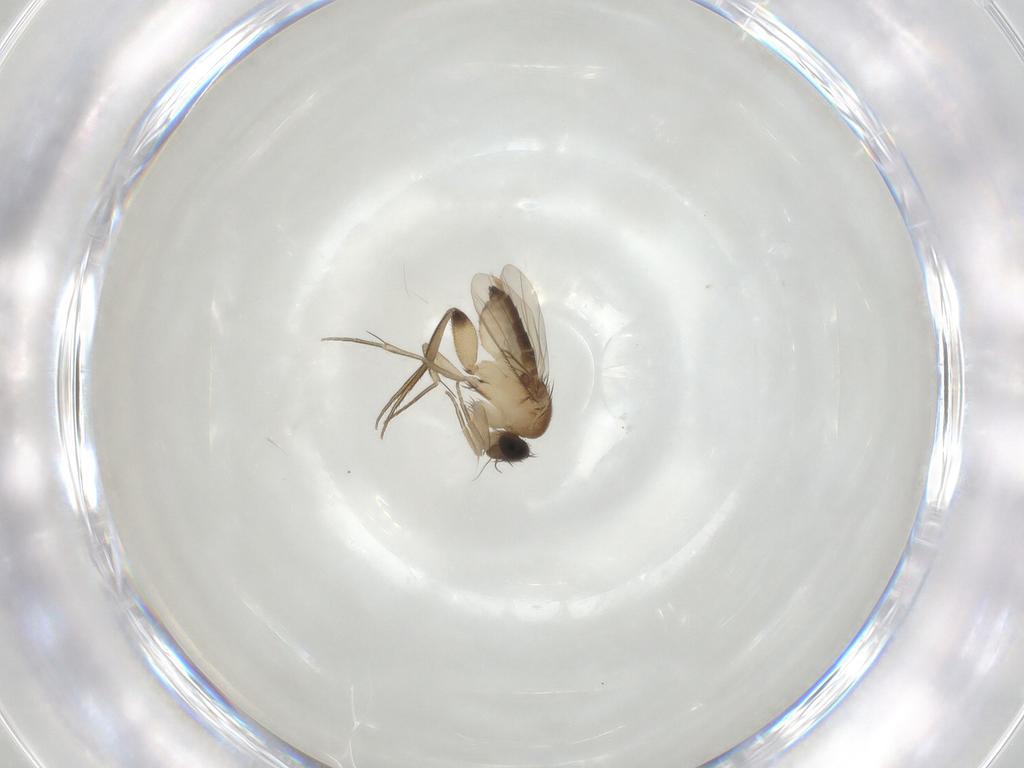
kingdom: Animalia
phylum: Arthropoda
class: Insecta
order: Diptera
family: Phoridae
